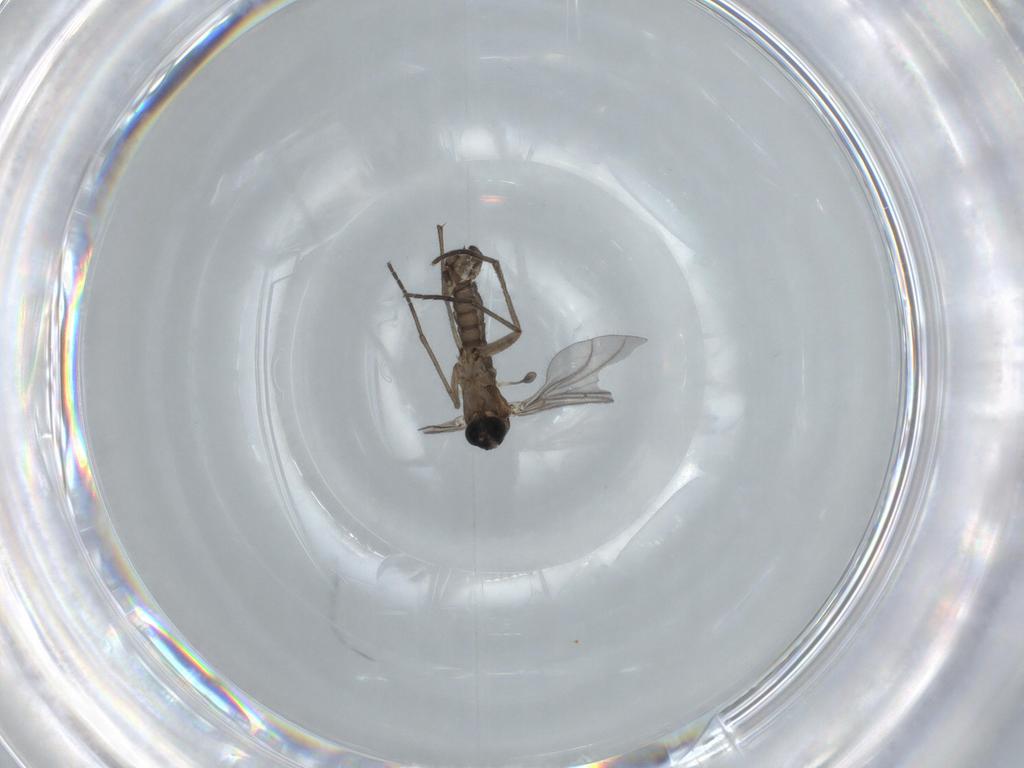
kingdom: Animalia
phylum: Arthropoda
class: Insecta
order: Diptera
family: Sciaridae
